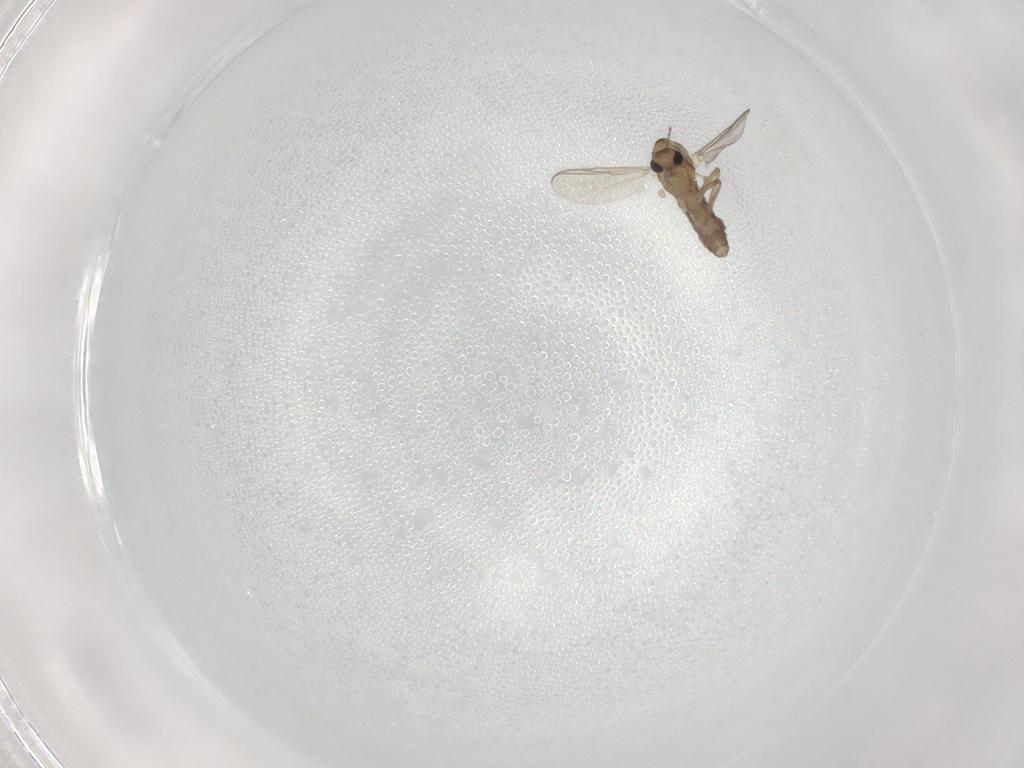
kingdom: Animalia
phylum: Arthropoda
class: Insecta
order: Diptera
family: Chironomidae
